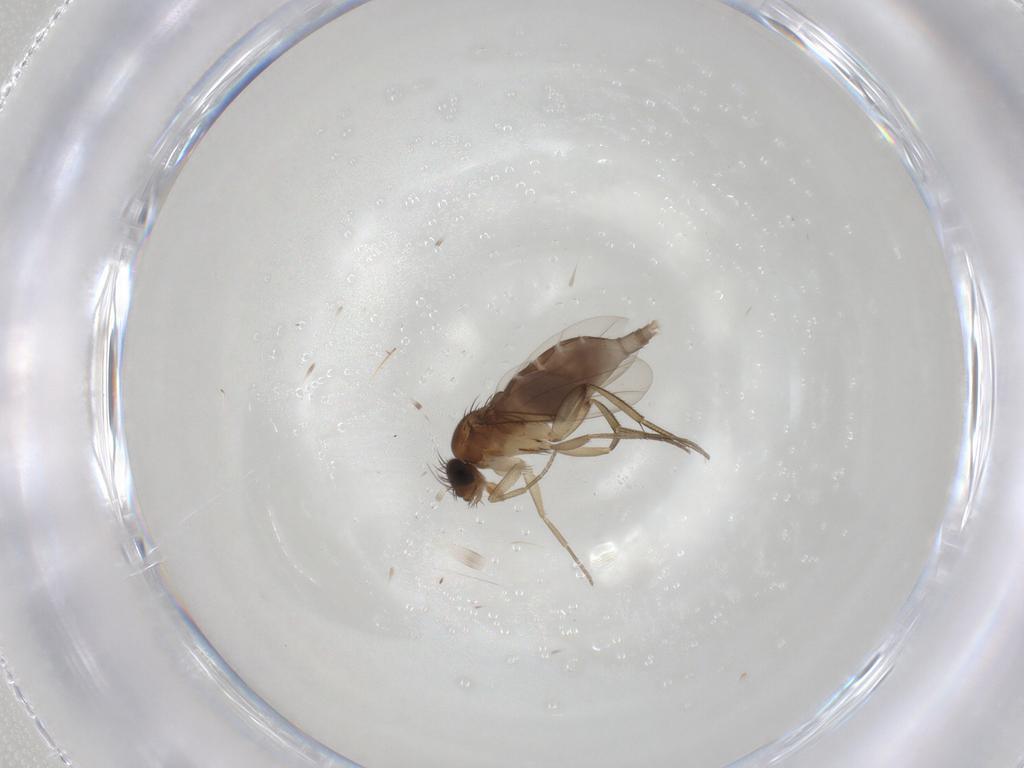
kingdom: Animalia
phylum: Arthropoda
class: Insecta
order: Diptera
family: Phoridae
